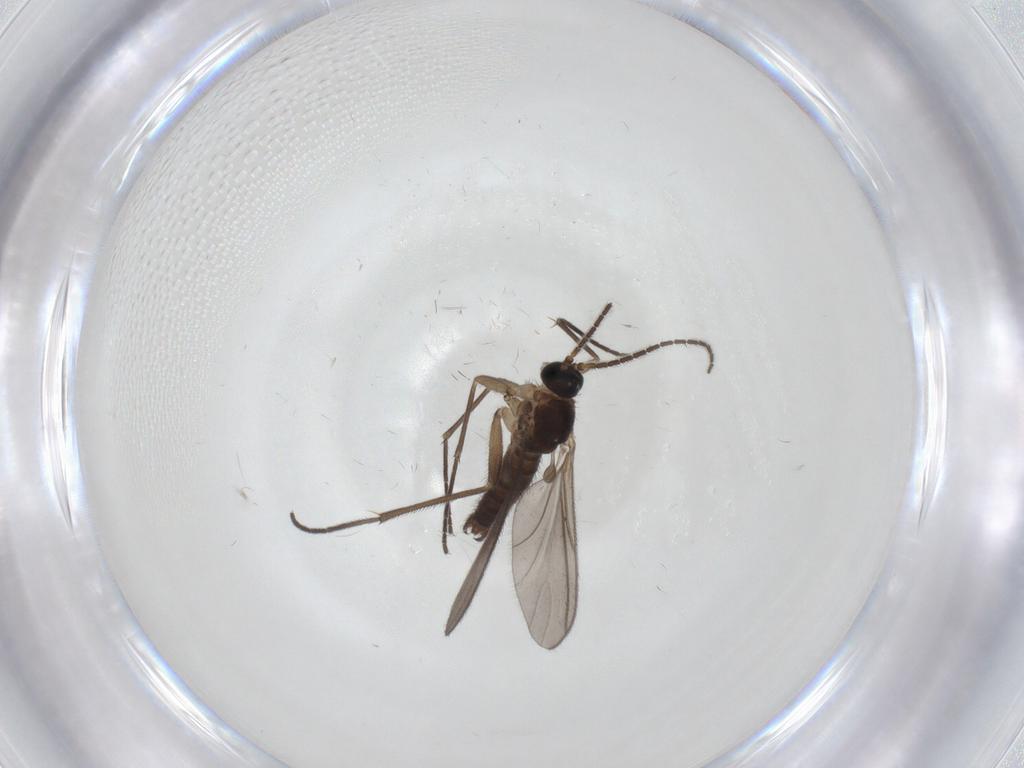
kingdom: Animalia
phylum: Arthropoda
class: Insecta
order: Diptera
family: Sciaridae
